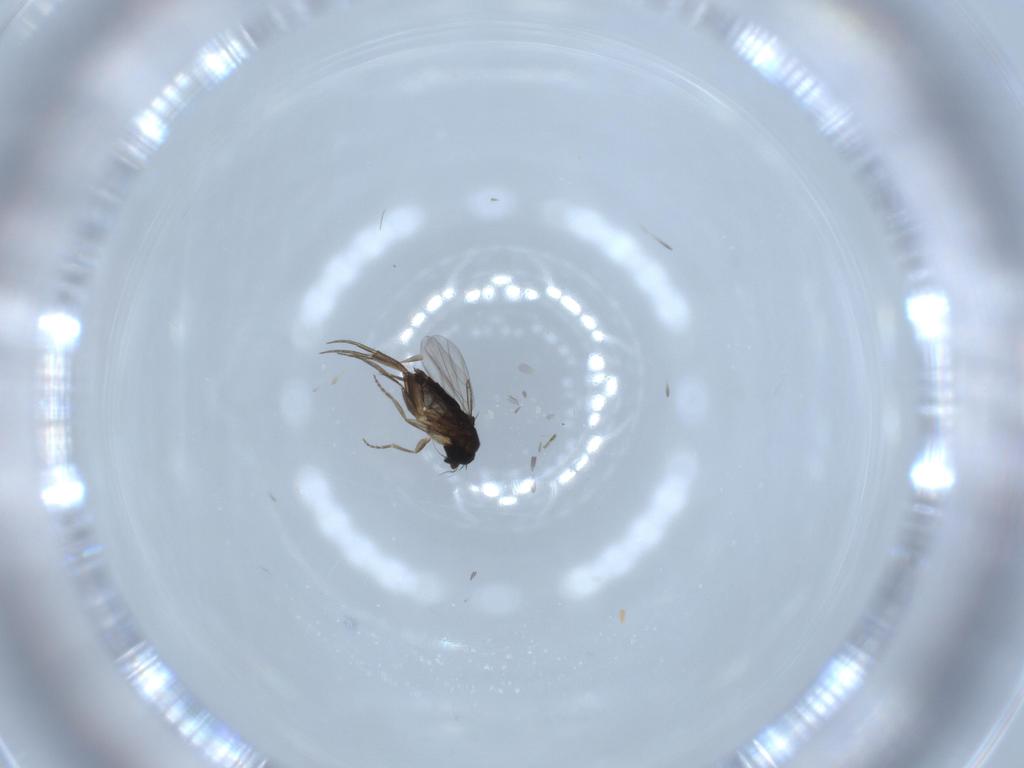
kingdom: Animalia
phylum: Arthropoda
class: Insecta
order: Diptera
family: Phoridae
